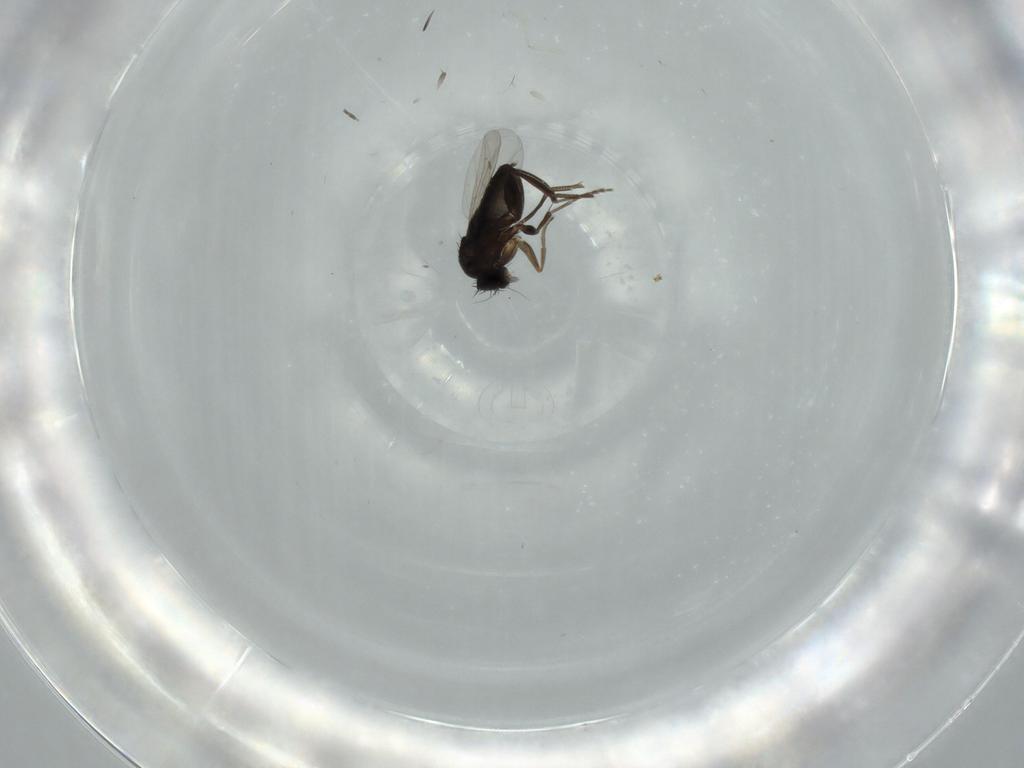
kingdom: Animalia
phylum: Arthropoda
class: Insecta
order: Diptera
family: Cecidomyiidae
